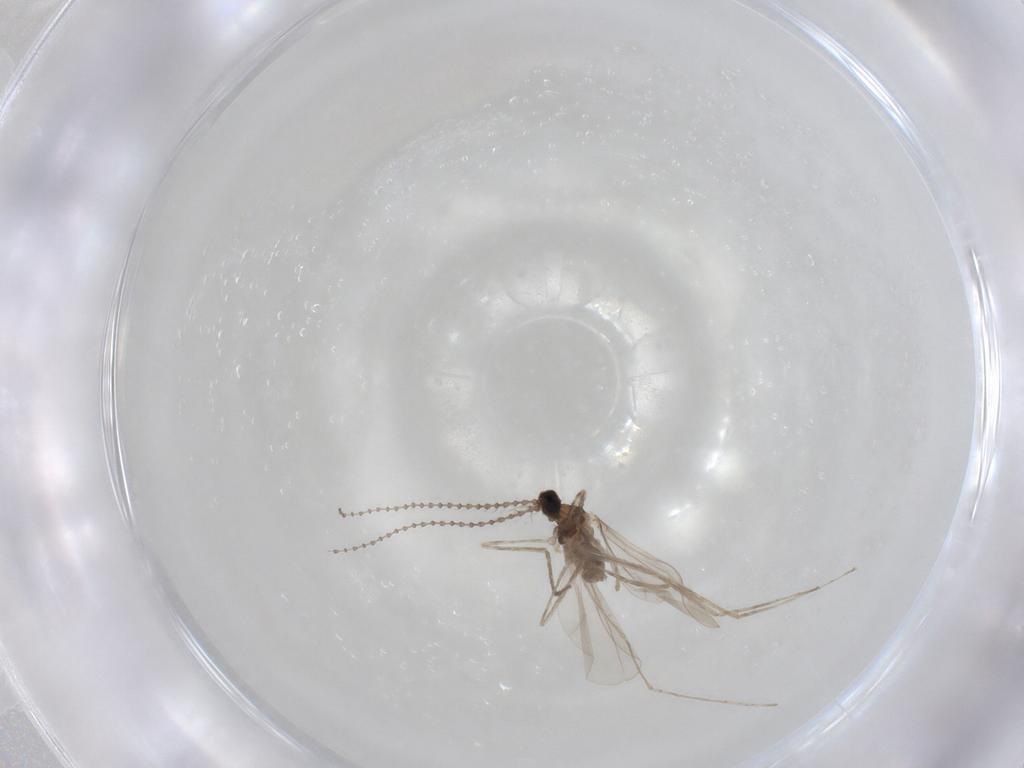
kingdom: Animalia
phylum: Arthropoda
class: Insecta
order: Diptera
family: Cecidomyiidae
